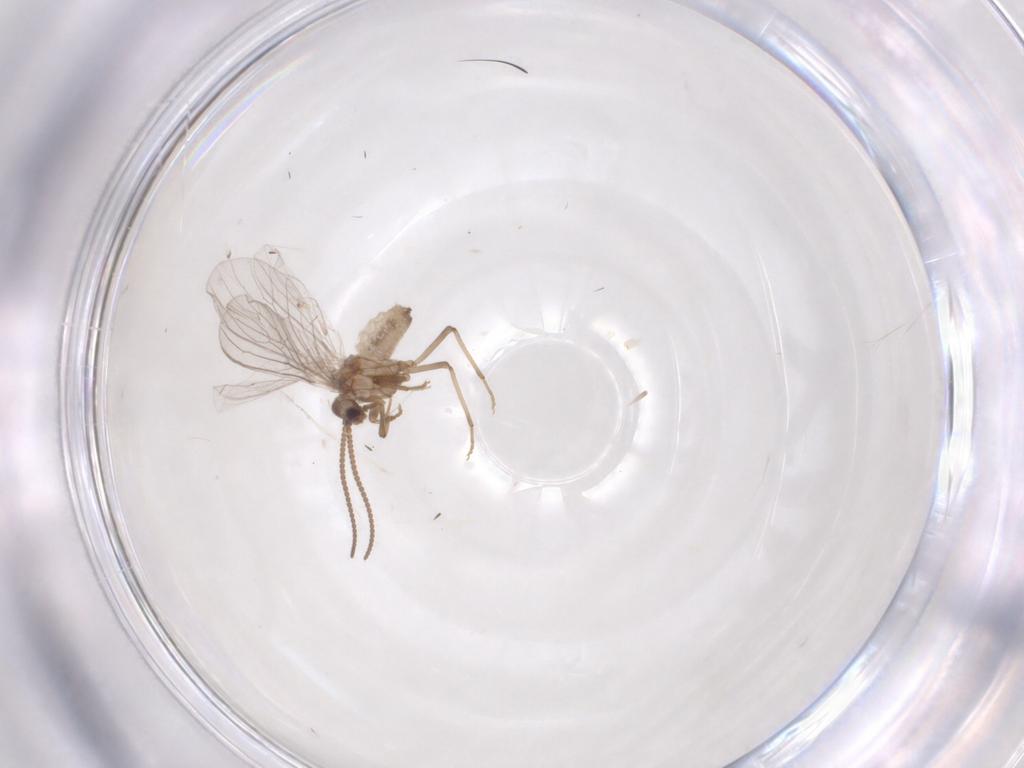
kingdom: Animalia
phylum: Arthropoda
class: Insecta
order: Neuroptera
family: Coniopterygidae
